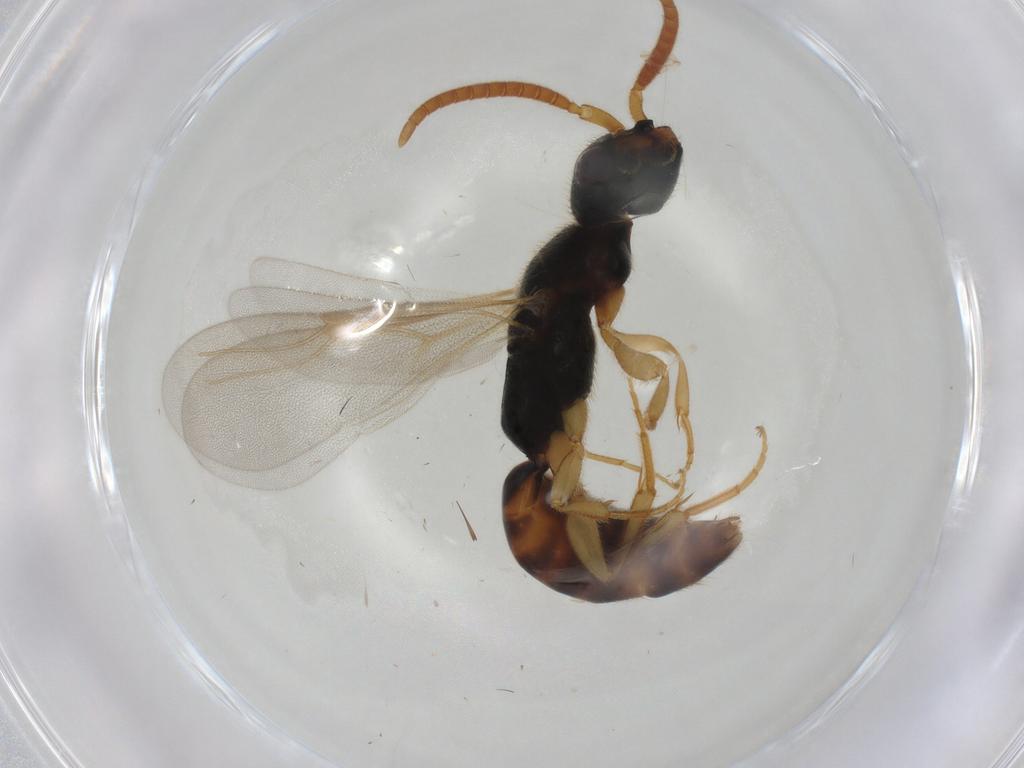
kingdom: Animalia
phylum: Arthropoda
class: Insecta
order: Hymenoptera
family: Bethylidae
